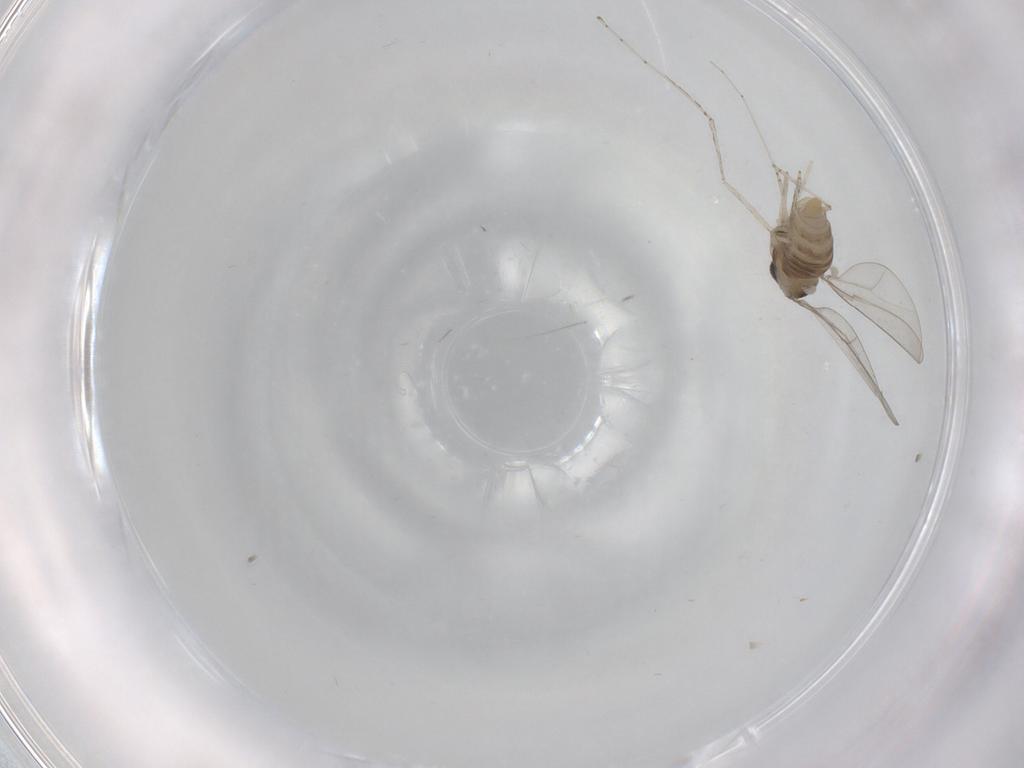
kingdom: Animalia
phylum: Arthropoda
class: Insecta
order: Diptera
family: Cecidomyiidae
